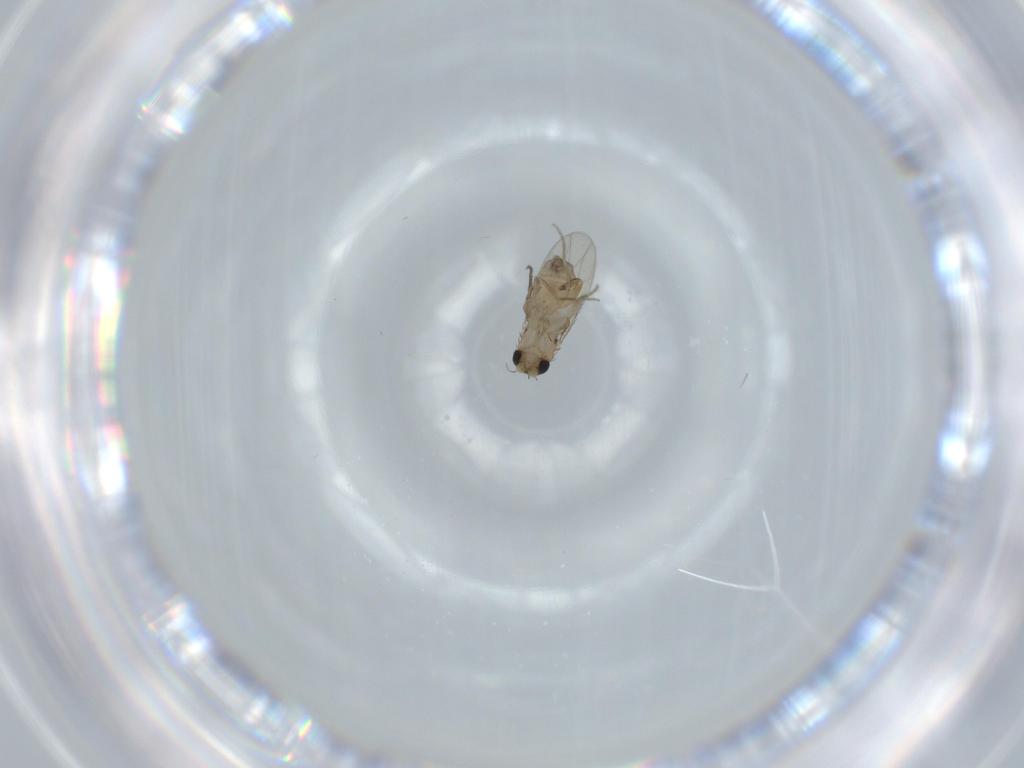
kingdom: Animalia
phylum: Arthropoda
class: Insecta
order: Diptera
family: Phoridae
